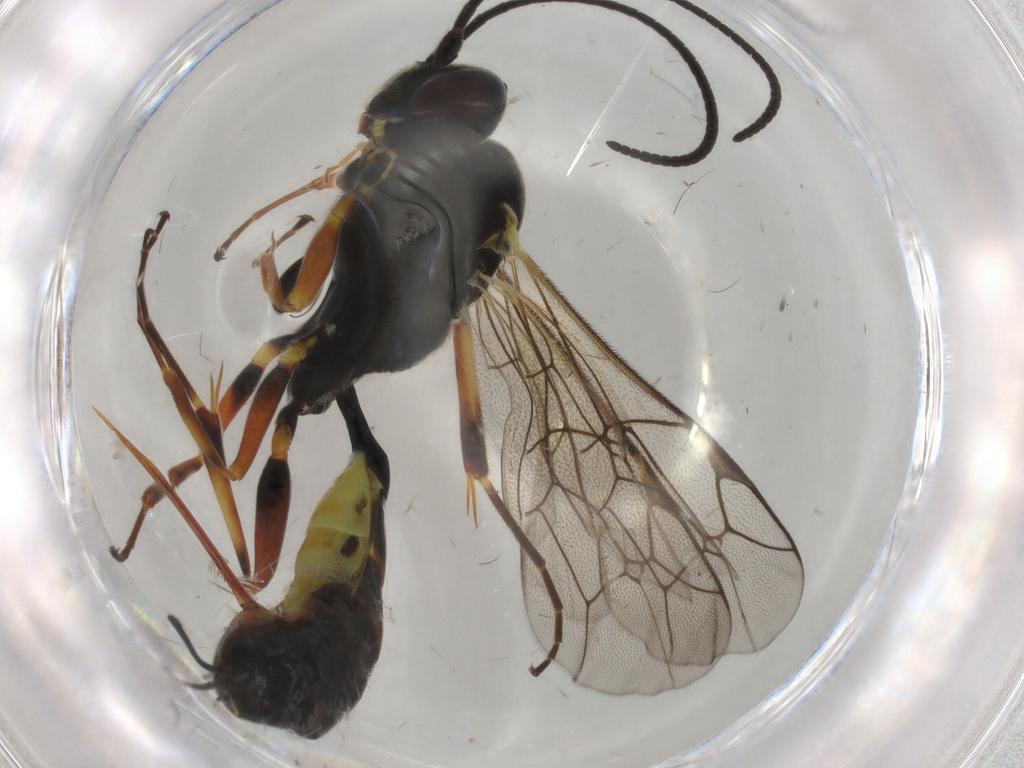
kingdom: Animalia
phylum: Arthropoda
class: Insecta
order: Hymenoptera
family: Ichneumonidae
